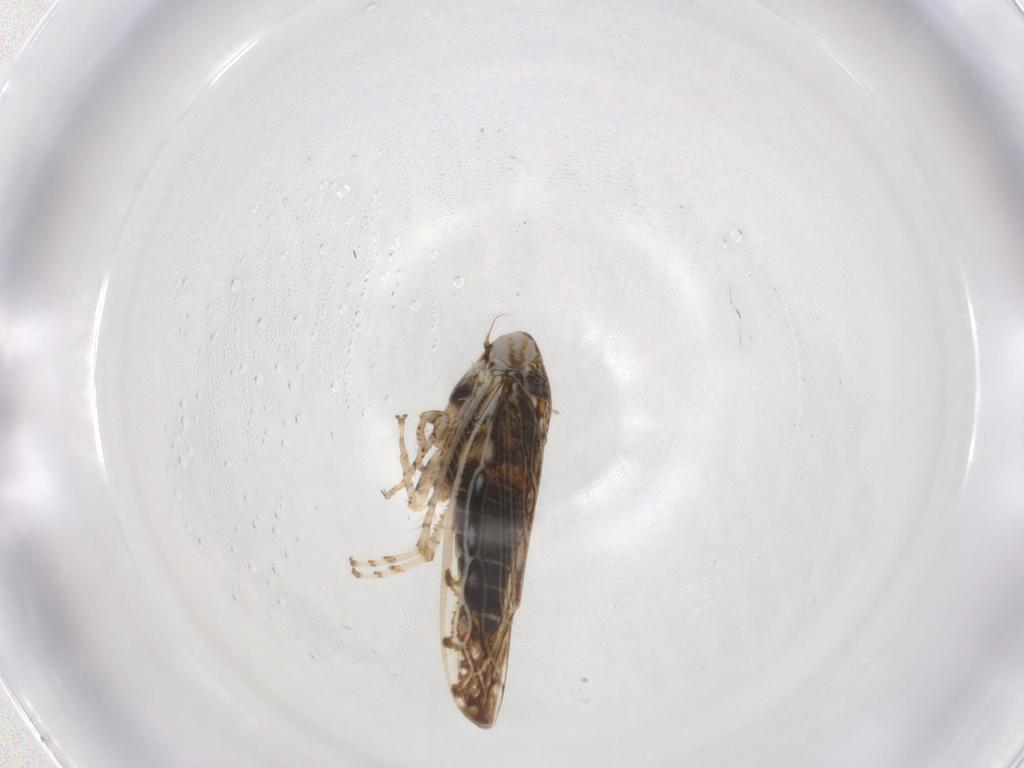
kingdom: Animalia
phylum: Arthropoda
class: Insecta
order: Hemiptera
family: Cicadellidae
